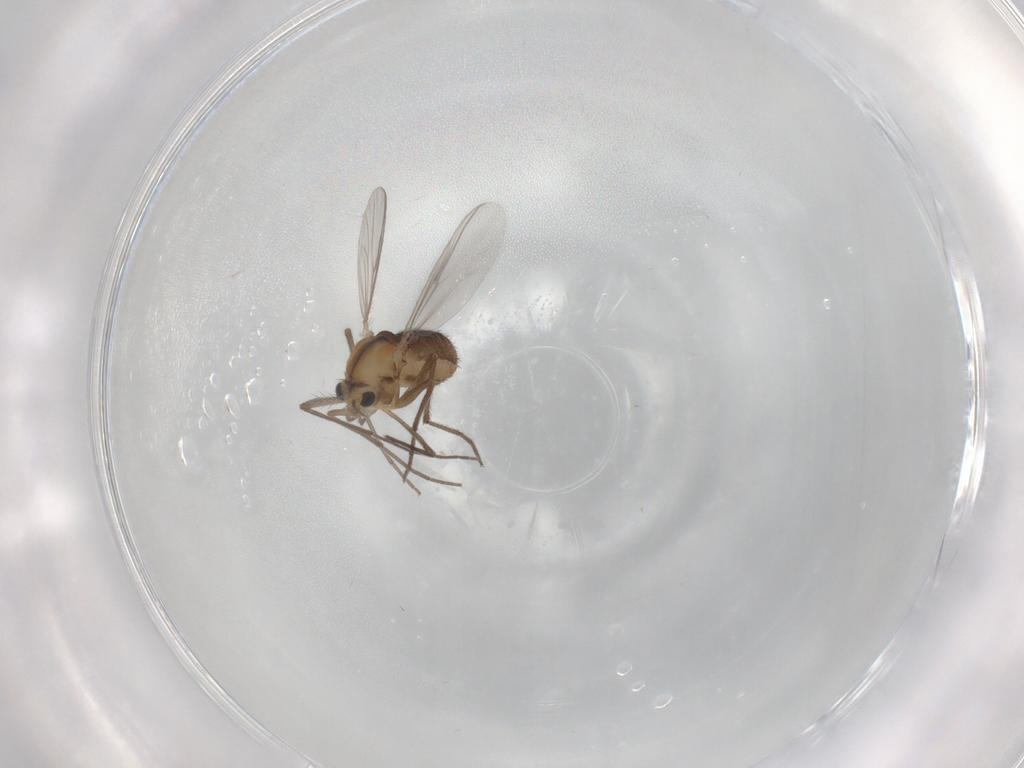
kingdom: Animalia
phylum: Arthropoda
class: Insecta
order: Diptera
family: Chironomidae
